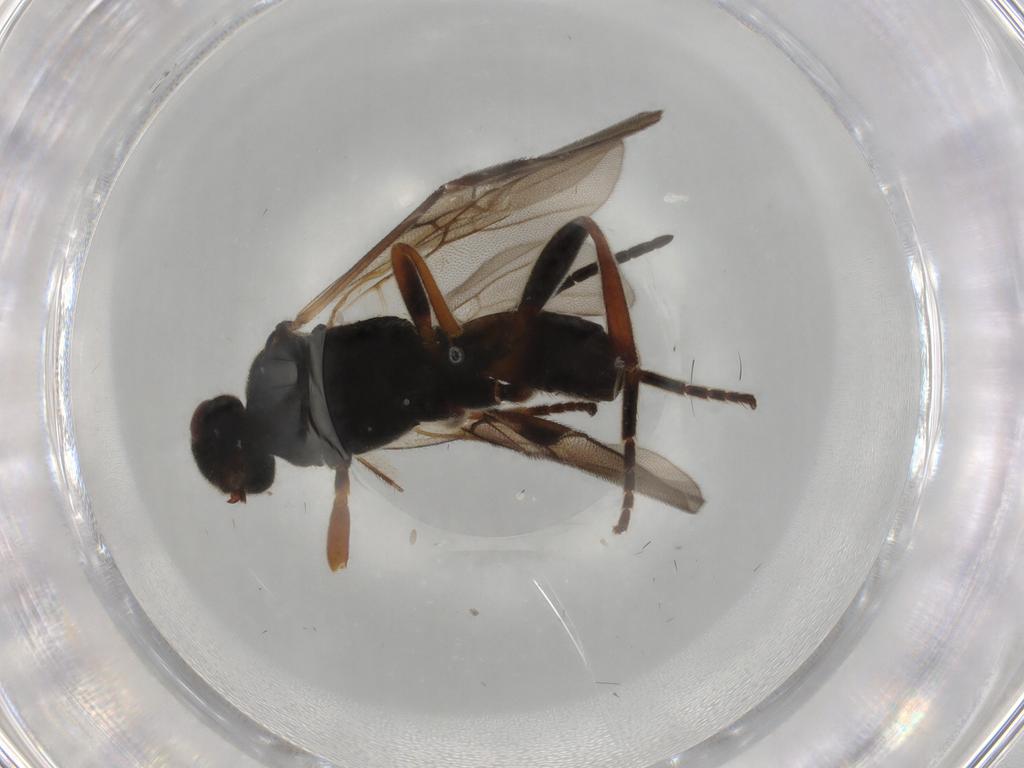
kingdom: Animalia
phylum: Arthropoda
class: Insecta
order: Hymenoptera
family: Braconidae
